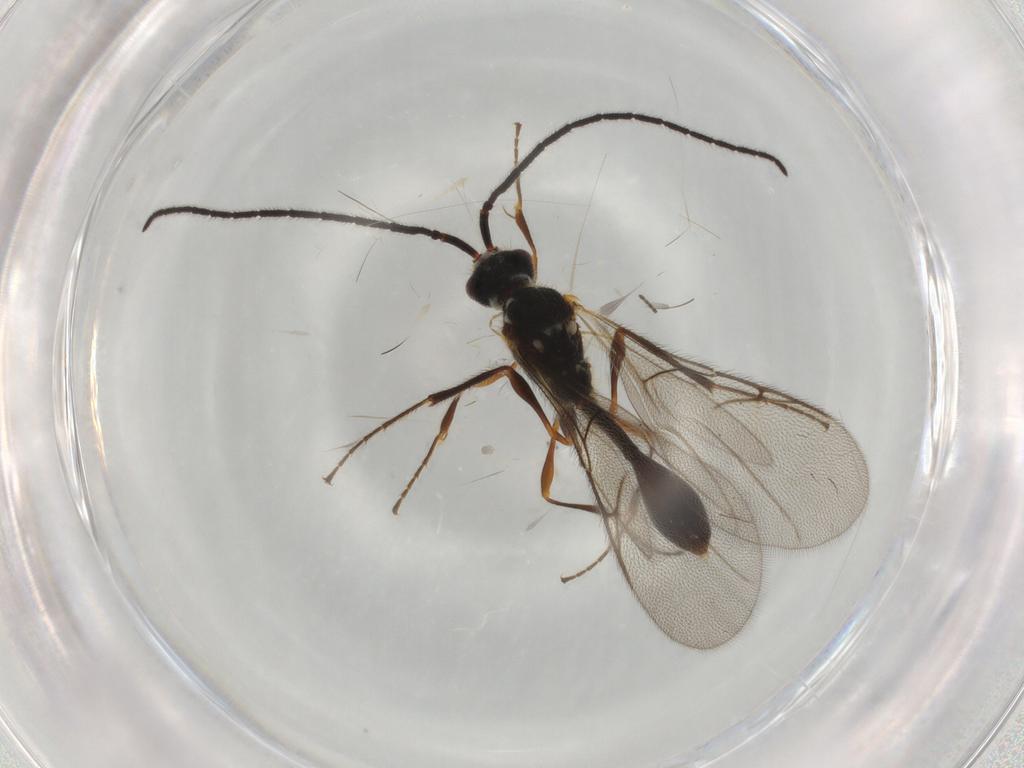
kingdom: Animalia
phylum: Arthropoda
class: Insecta
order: Hymenoptera
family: Diapriidae
